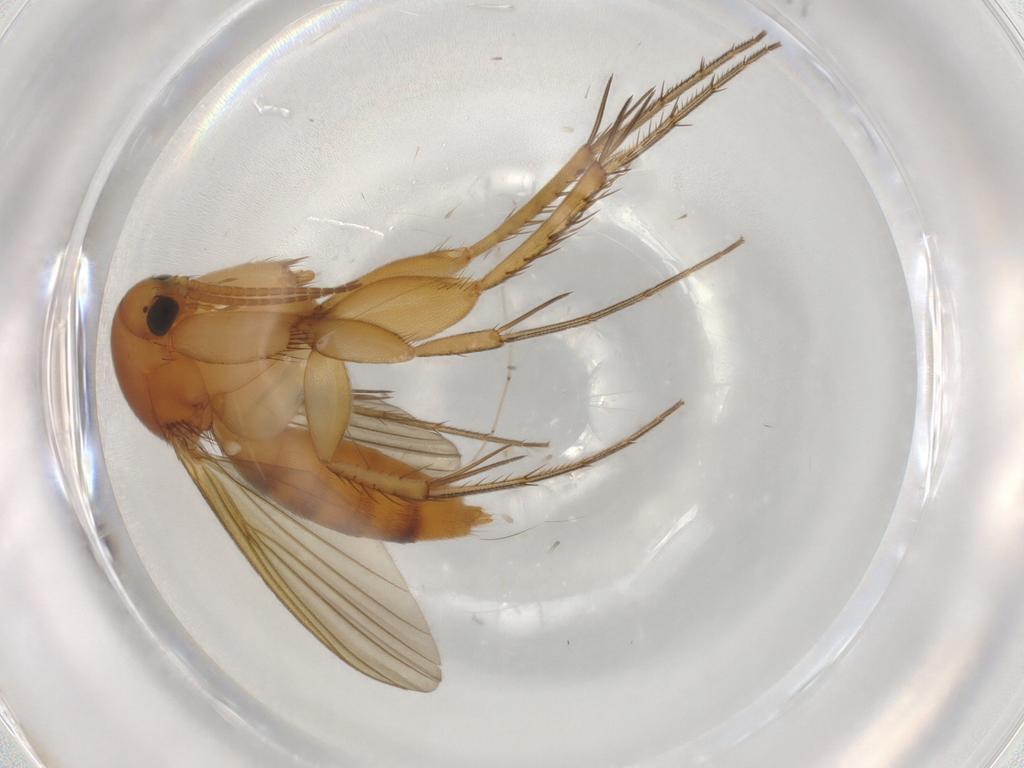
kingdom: Animalia
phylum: Arthropoda
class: Insecta
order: Diptera
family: Mycetophilidae
